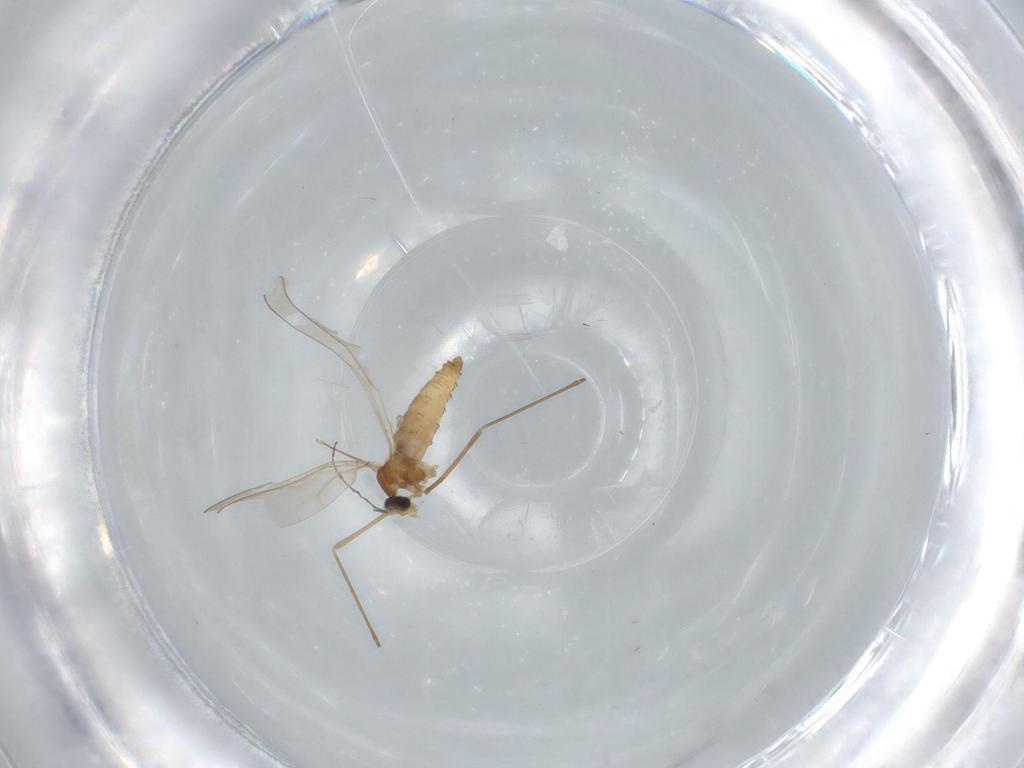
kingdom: Animalia
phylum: Arthropoda
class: Insecta
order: Diptera
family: Cecidomyiidae
